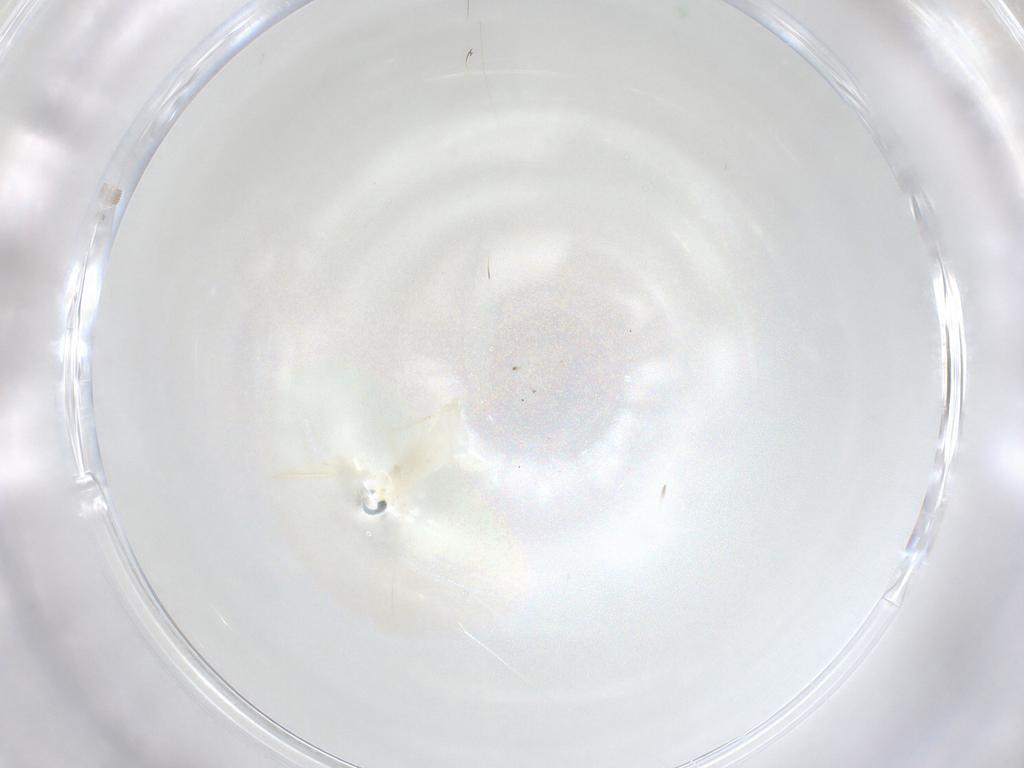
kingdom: Animalia
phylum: Arthropoda
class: Insecta
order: Diptera
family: Cecidomyiidae
